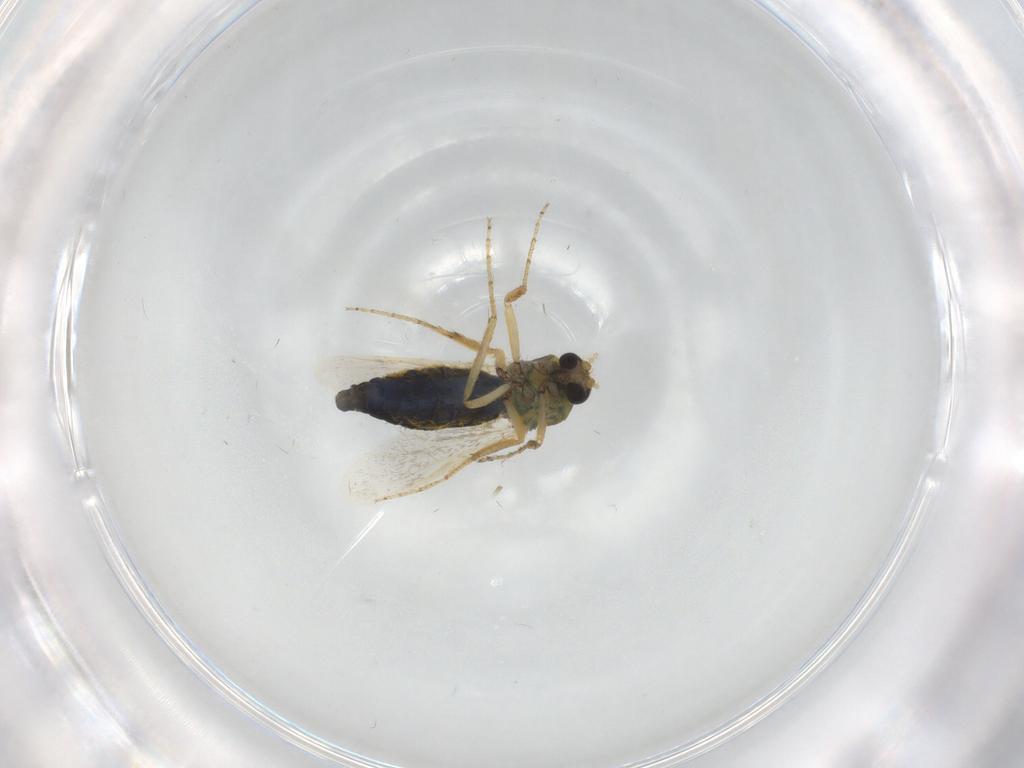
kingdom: Animalia
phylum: Arthropoda
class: Insecta
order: Diptera
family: Ceratopogonidae
